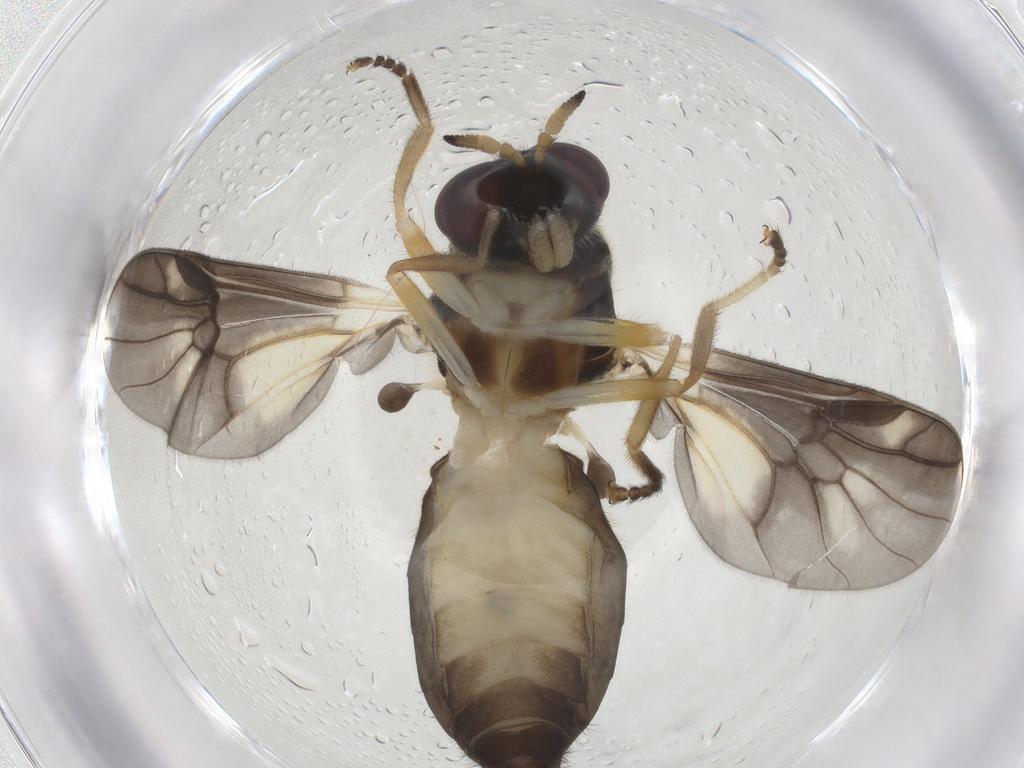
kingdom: Animalia
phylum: Arthropoda
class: Insecta
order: Diptera
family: Stratiomyidae
